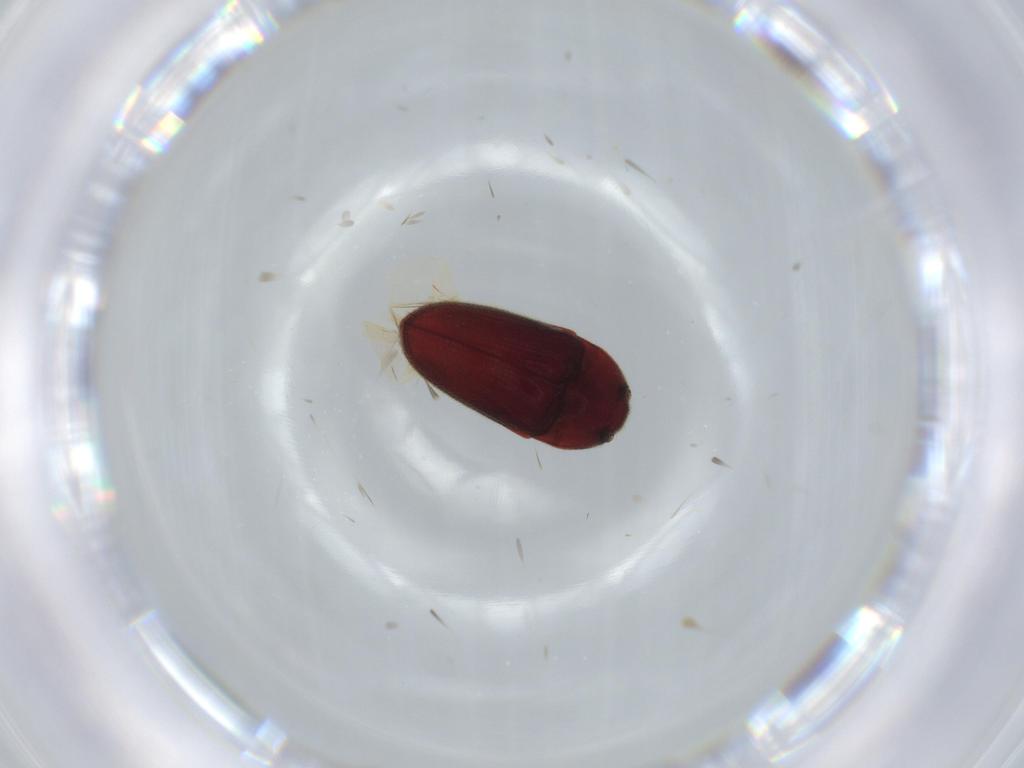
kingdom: Animalia
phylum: Arthropoda
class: Insecta
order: Coleoptera
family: Throscidae
